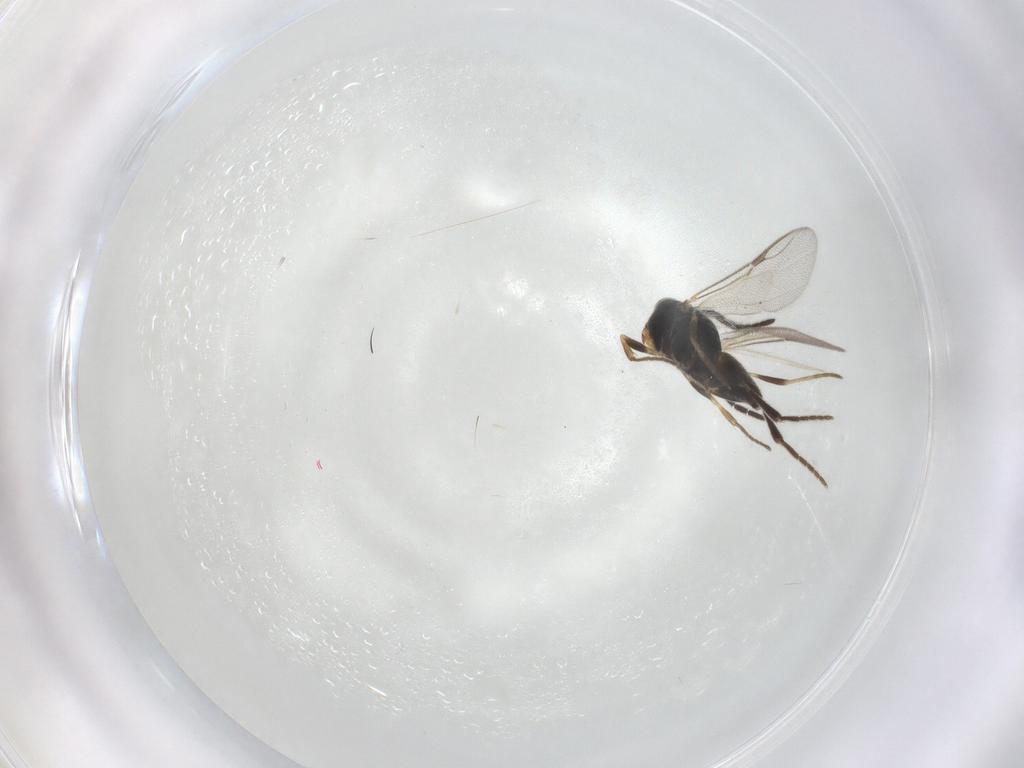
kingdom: Animalia
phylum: Arthropoda
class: Insecta
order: Hymenoptera
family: Dryinidae
